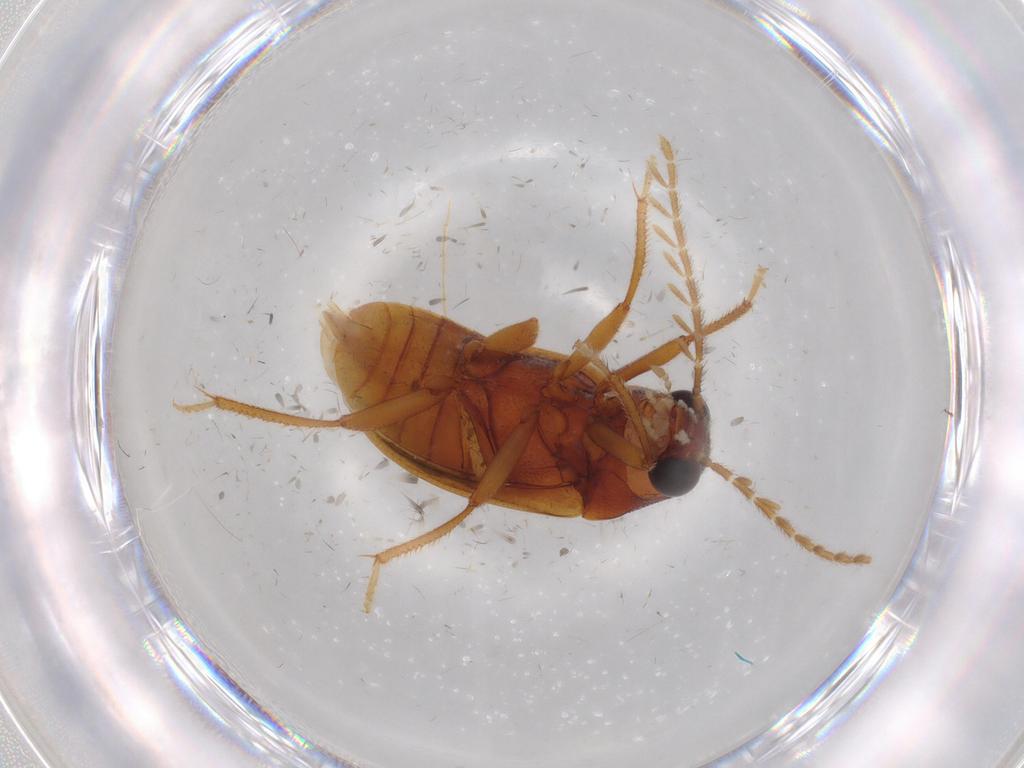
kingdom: Animalia
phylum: Arthropoda
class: Insecta
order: Coleoptera
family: Ptilodactylidae
